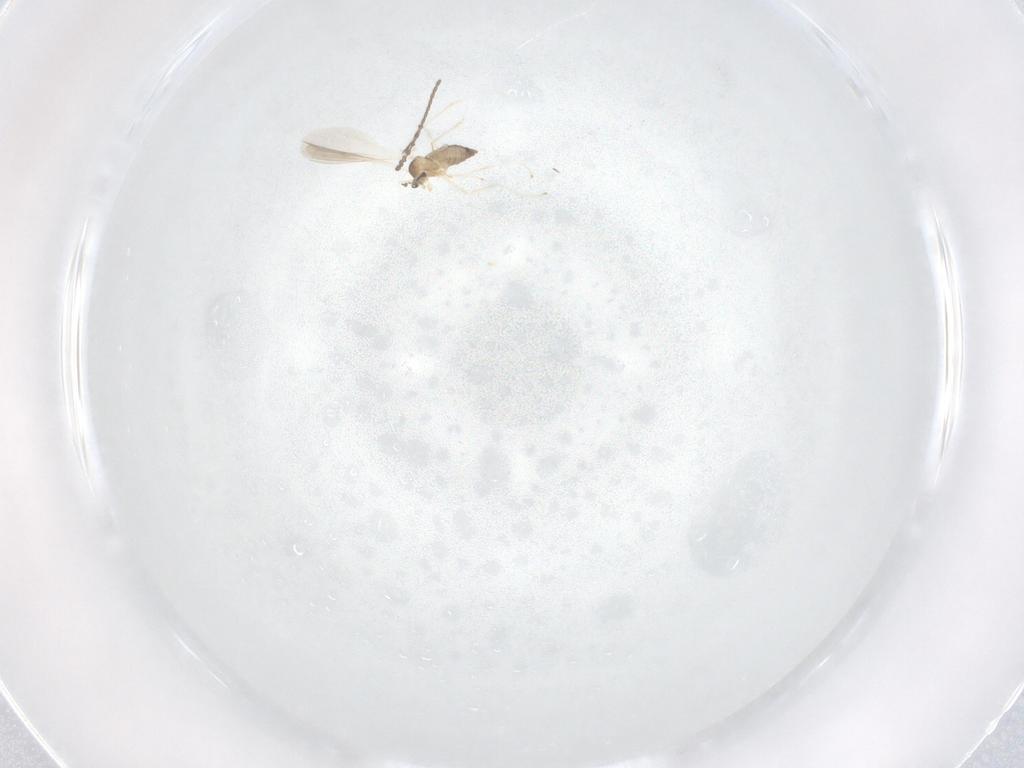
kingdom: Animalia
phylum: Arthropoda
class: Insecta
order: Diptera
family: Cecidomyiidae
